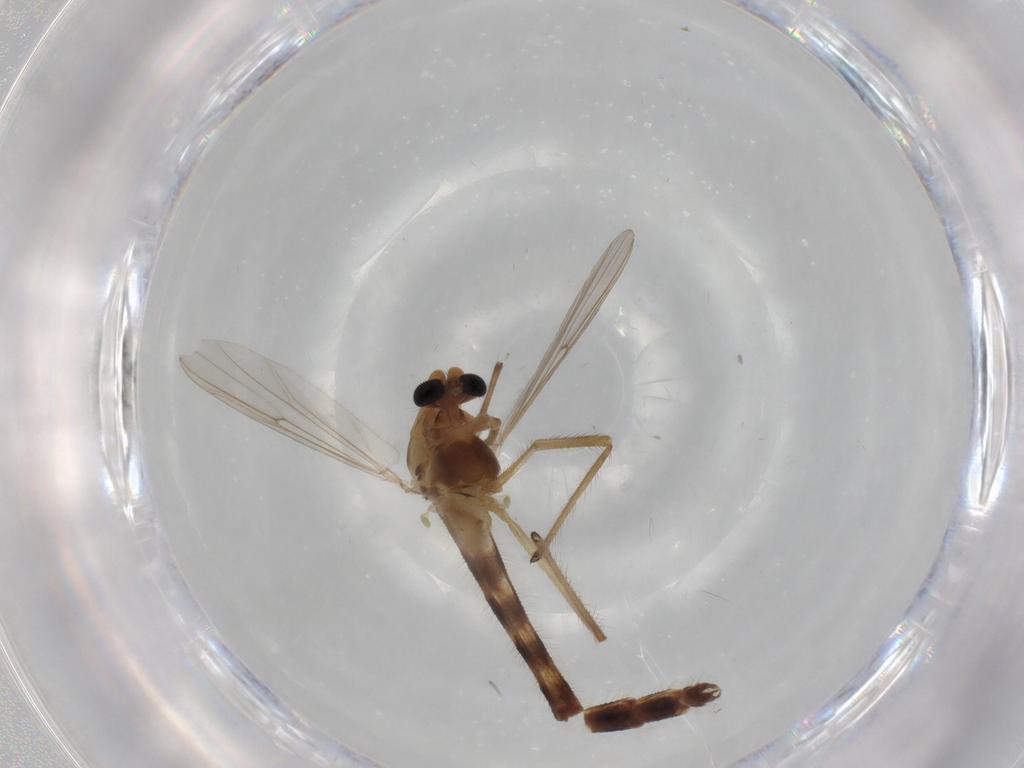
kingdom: Animalia
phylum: Arthropoda
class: Insecta
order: Diptera
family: Chironomidae
